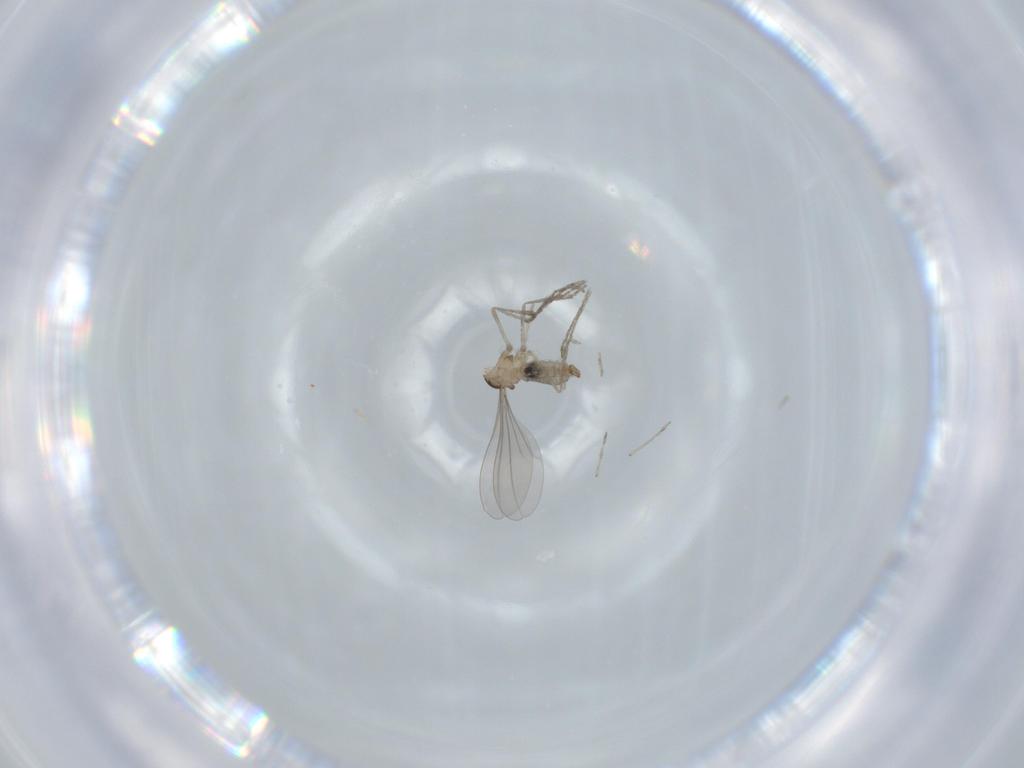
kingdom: Animalia
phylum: Arthropoda
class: Insecta
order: Diptera
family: Cecidomyiidae
